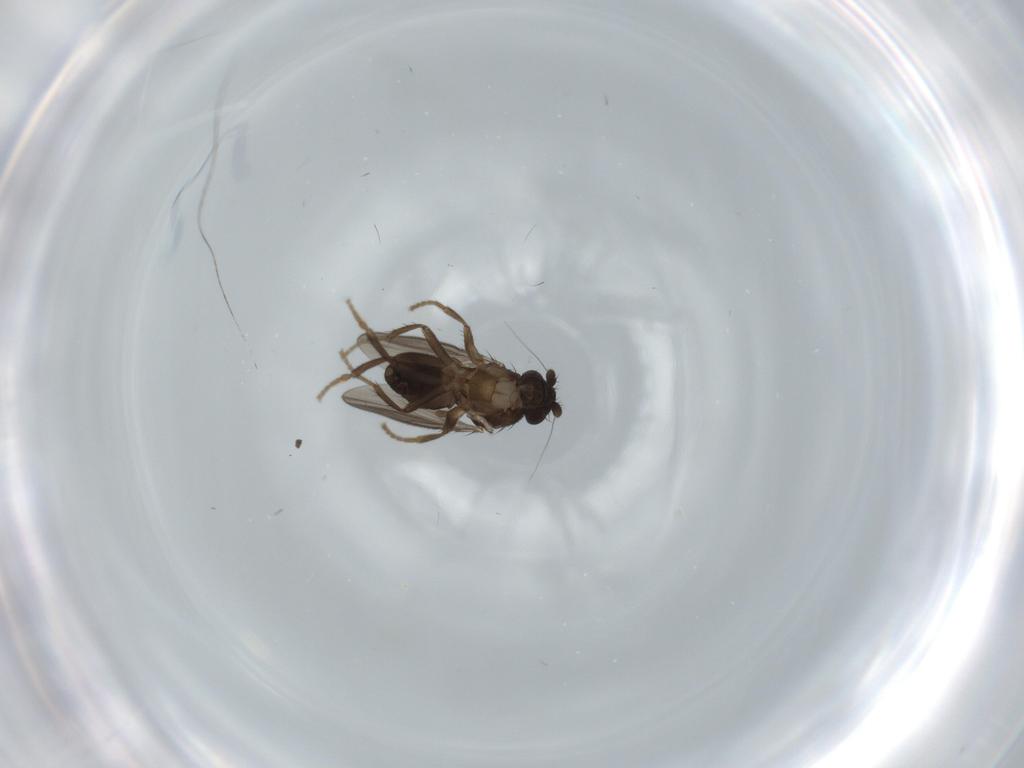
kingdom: Animalia
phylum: Arthropoda
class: Insecta
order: Diptera
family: Sphaeroceridae
